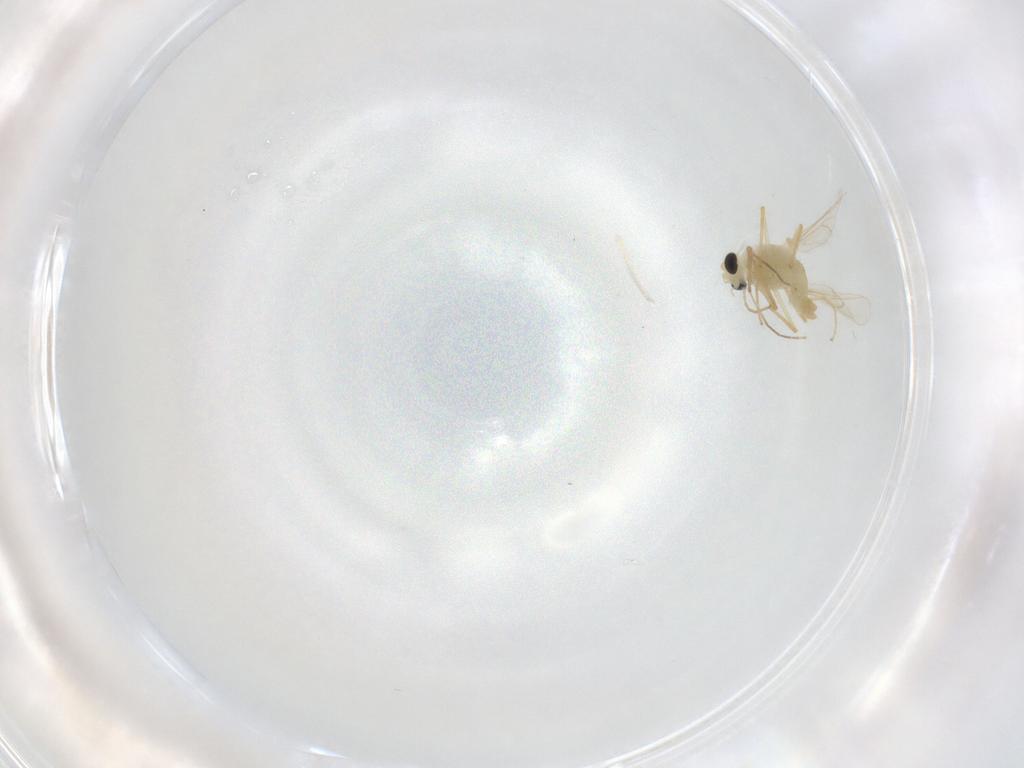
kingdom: Animalia
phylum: Arthropoda
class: Insecta
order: Diptera
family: Chironomidae
